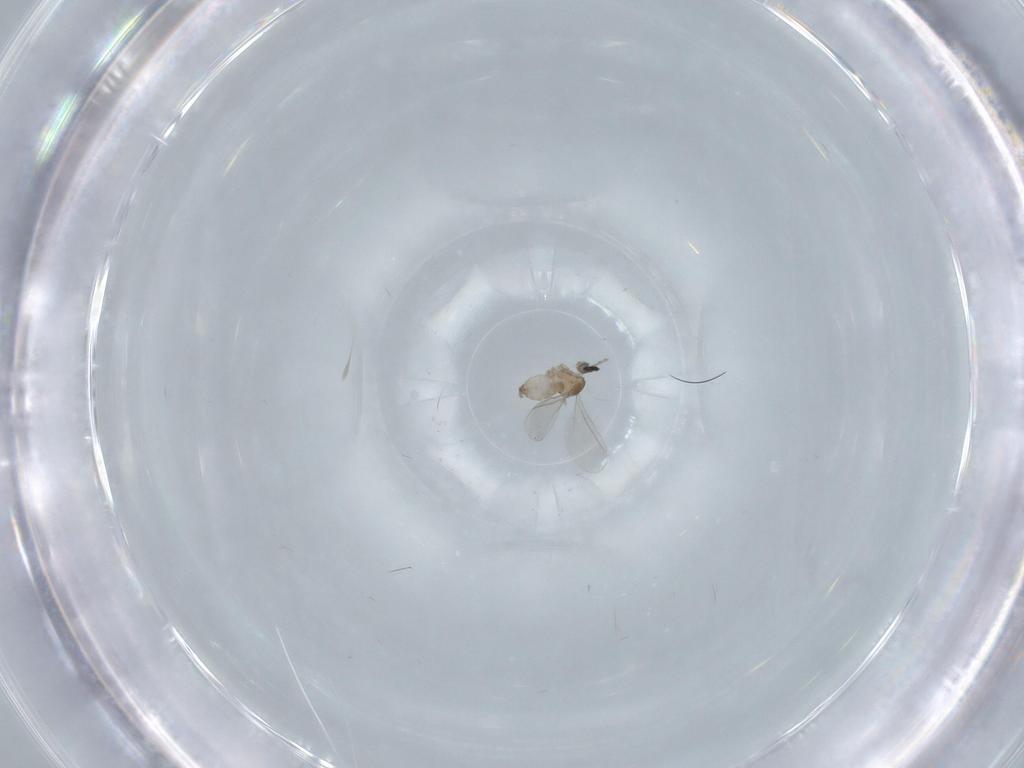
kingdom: Animalia
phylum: Arthropoda
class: Insecta
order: Diptera
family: Cecidomyiidae
